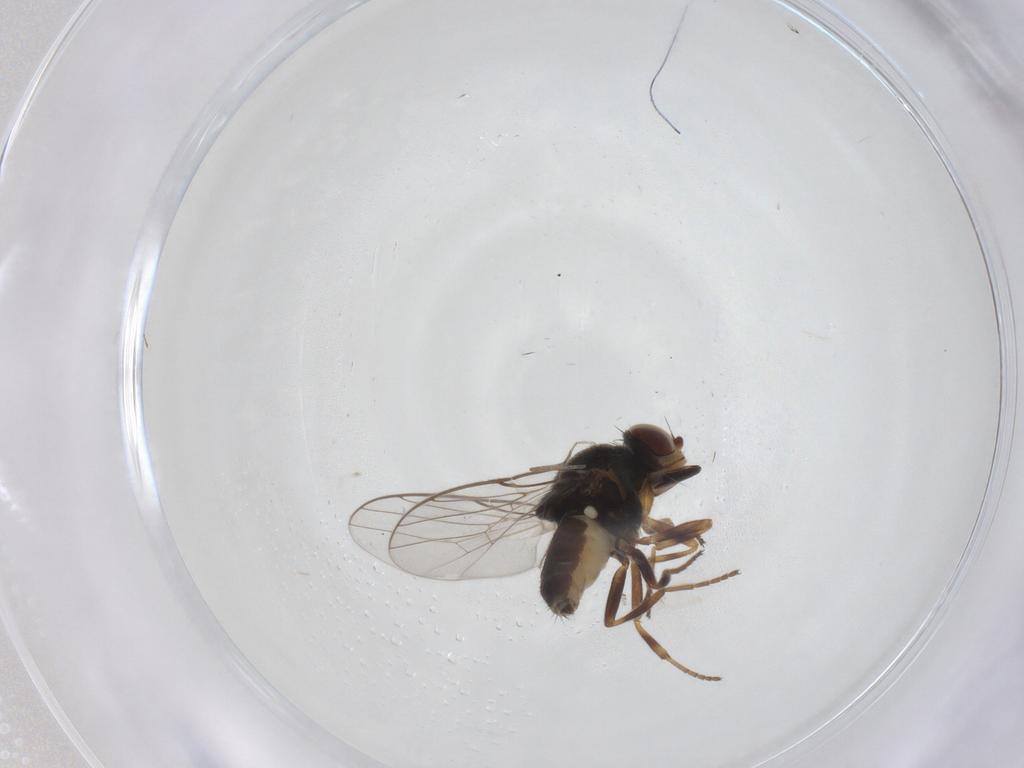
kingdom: Animalia
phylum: Arthropoda
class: Insecta
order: Diptera
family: Chloropidae
